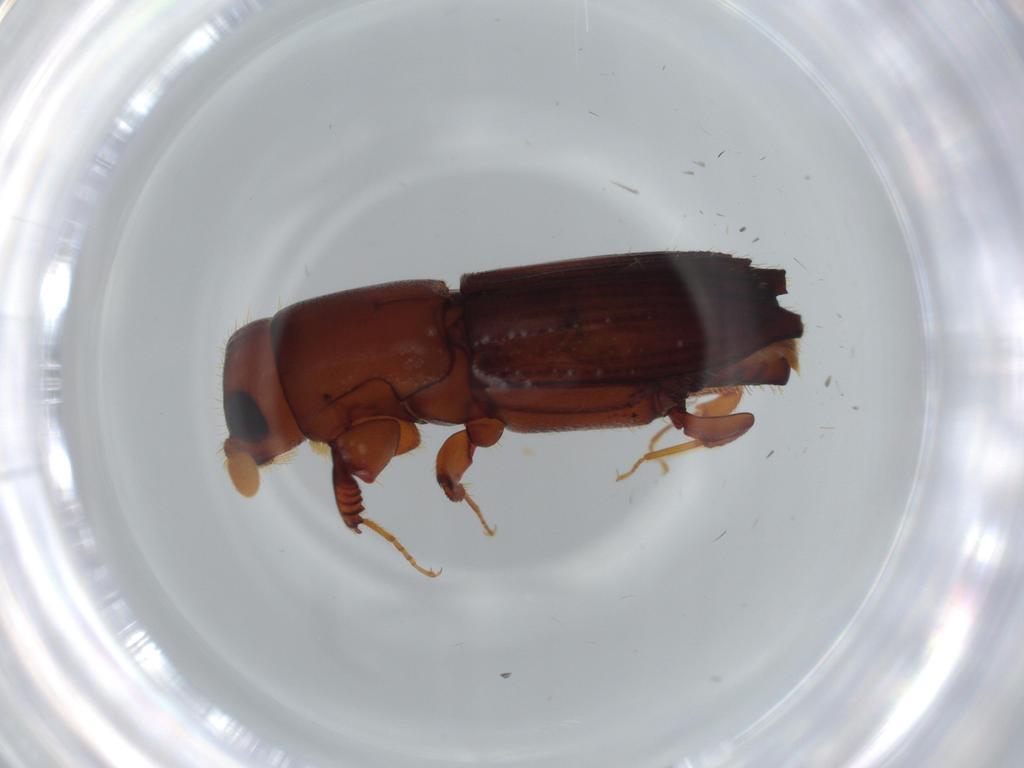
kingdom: Animalia
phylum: Arthropoda
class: Insecta
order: Coleoptera
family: Curculionidae
